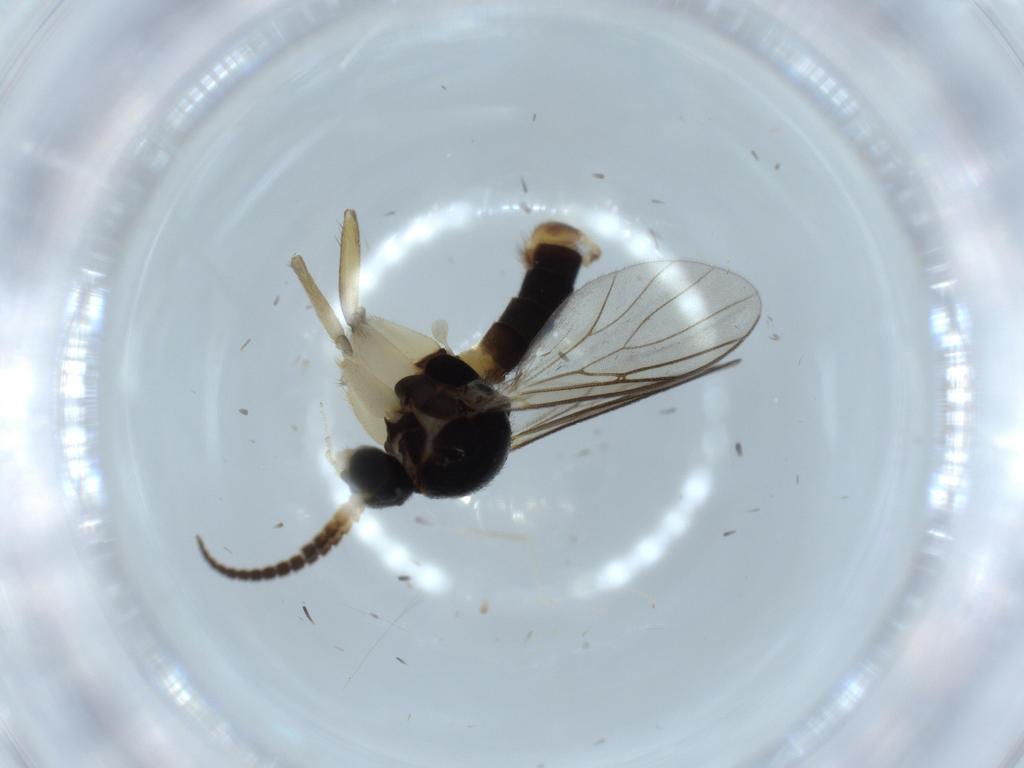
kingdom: Animalia
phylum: Arthropoda
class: Insecta
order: Diptera
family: Mycetophilidae
